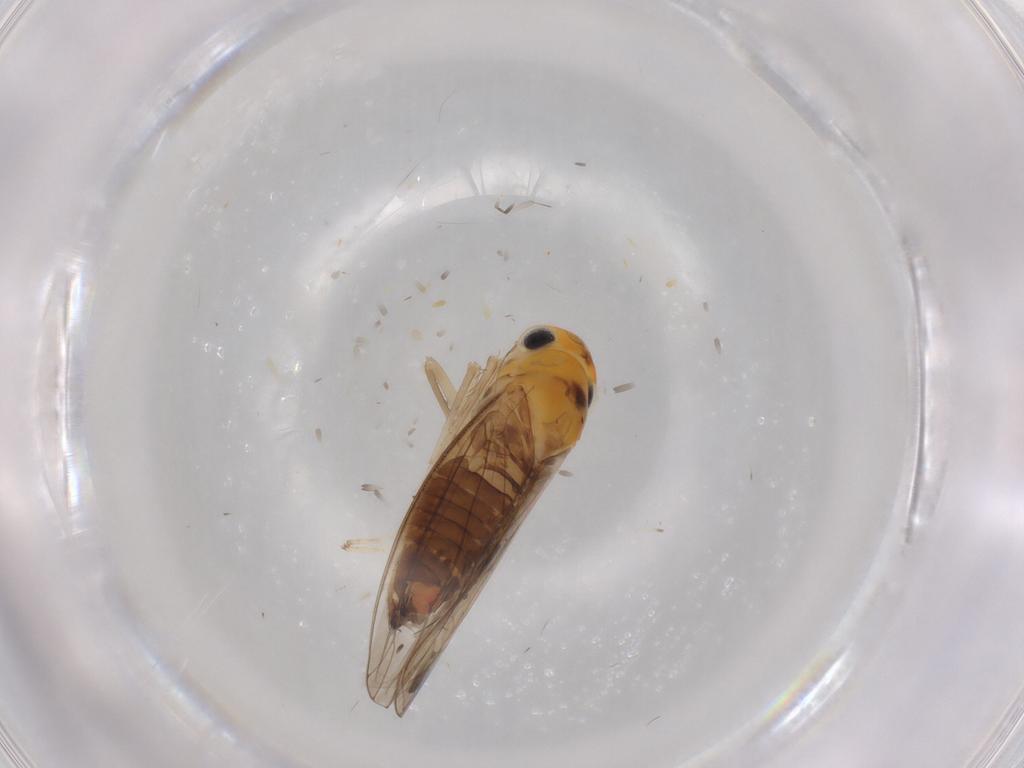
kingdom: Animalia
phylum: Arthropoda
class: Insecta
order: Hemiptera
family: Cicadellidae
